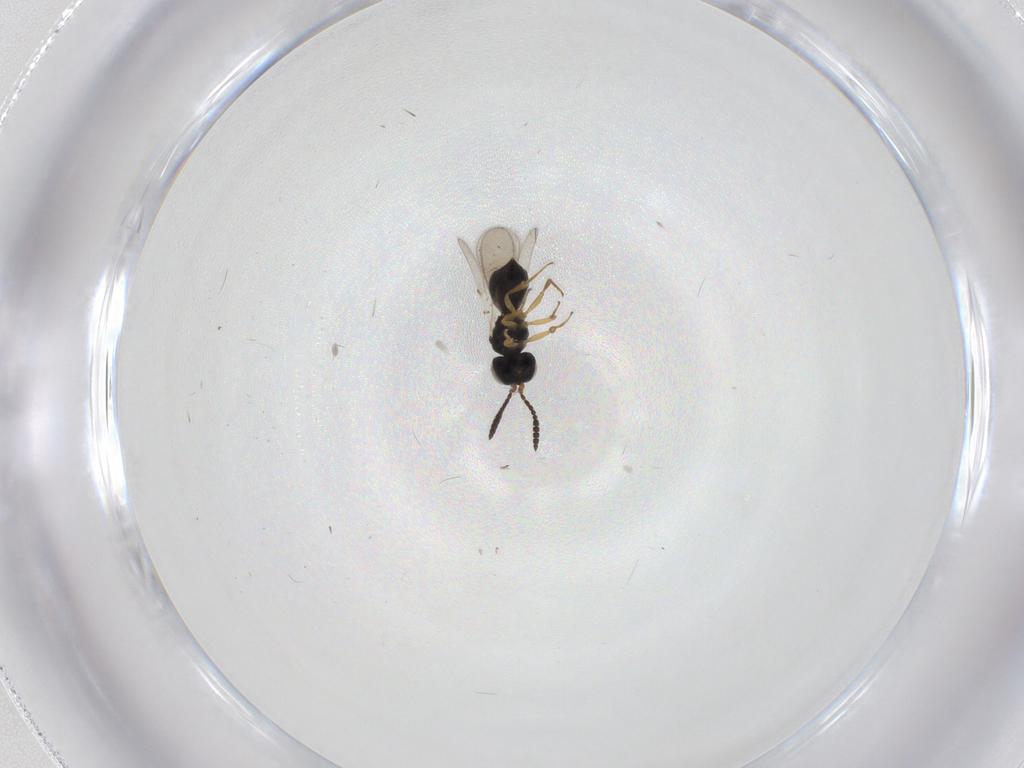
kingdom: Animalia
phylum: Arthropoda
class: Insecta
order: Hymenoptera
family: Scelionidae
